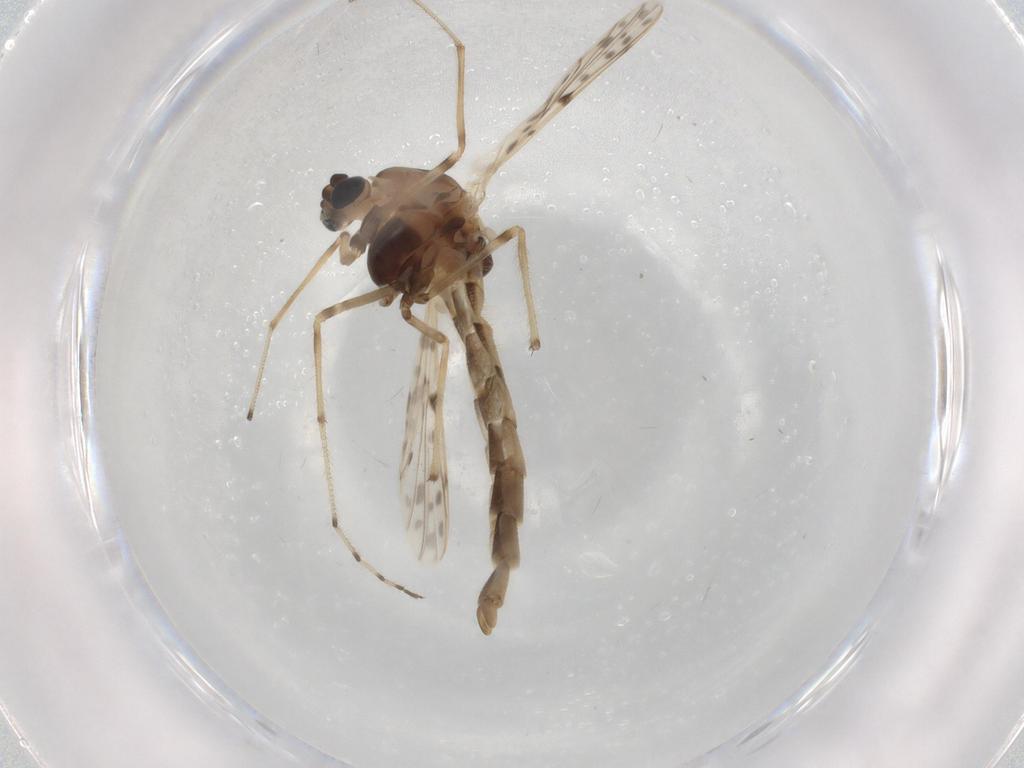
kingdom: Animalia
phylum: Arthropoda
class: Insecta
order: Diptera
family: Chironomidae
